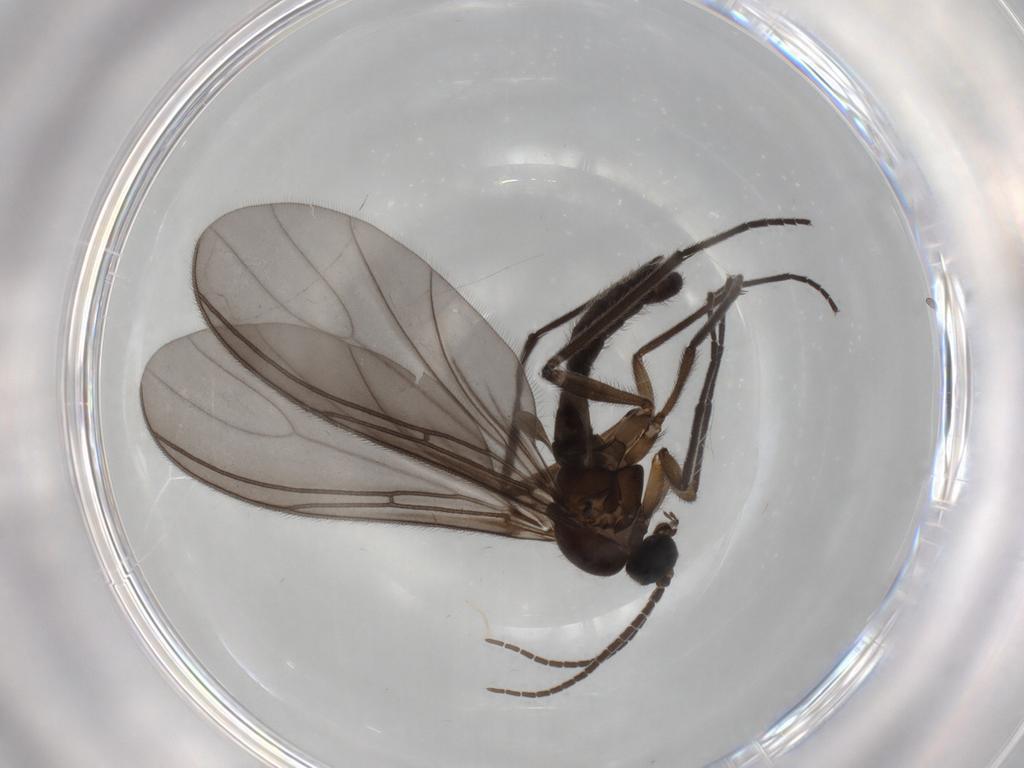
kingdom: Animalia
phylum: Arthropoda
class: Insecta
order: Diptera
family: Sciaridae
